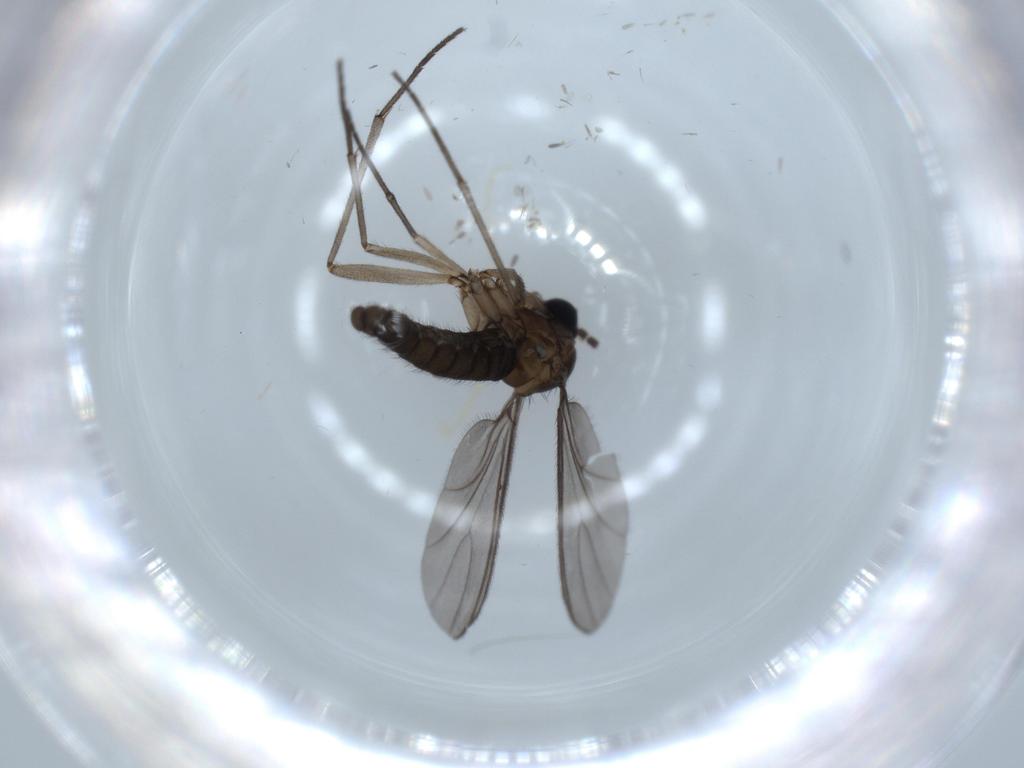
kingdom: Animalia
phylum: Arthropoda
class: Insecta
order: Diptera
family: Sciaridae
